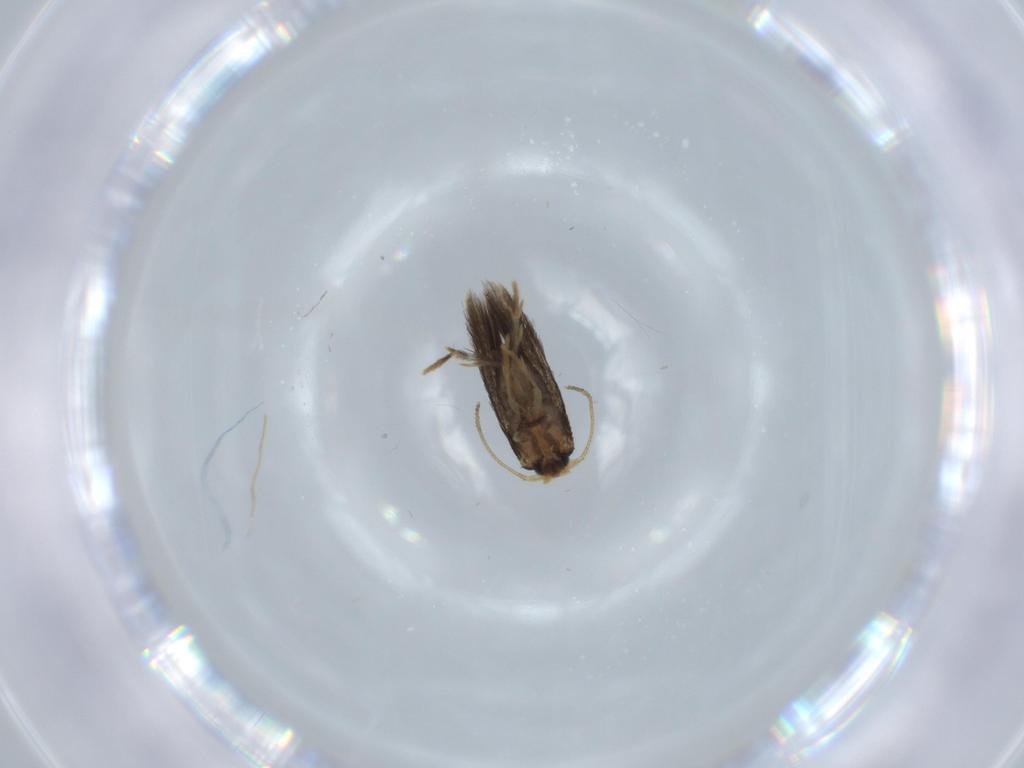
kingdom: Animalia
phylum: Arthropoda
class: Insecta
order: Lepidoptera
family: Nepticulidae
